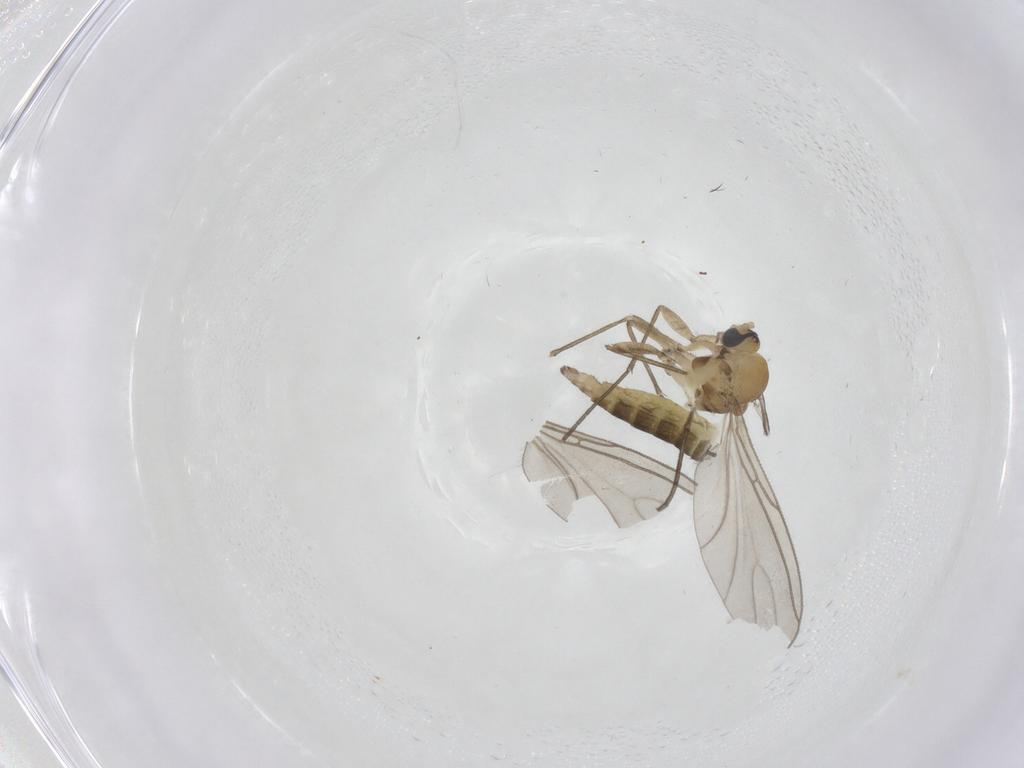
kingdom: Animalia
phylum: Arthropoda
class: Insecta
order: Diptera
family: Sciaridae
